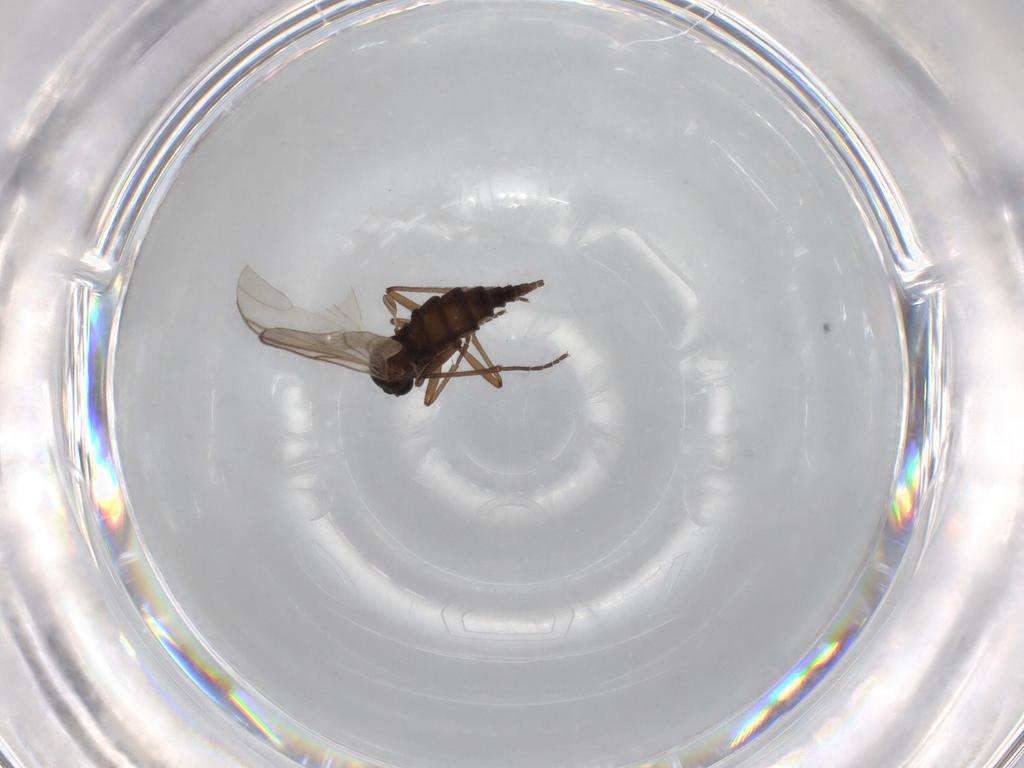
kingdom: Animalia
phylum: Arthropoda
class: Insecta
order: Diptera
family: Sciaridae
